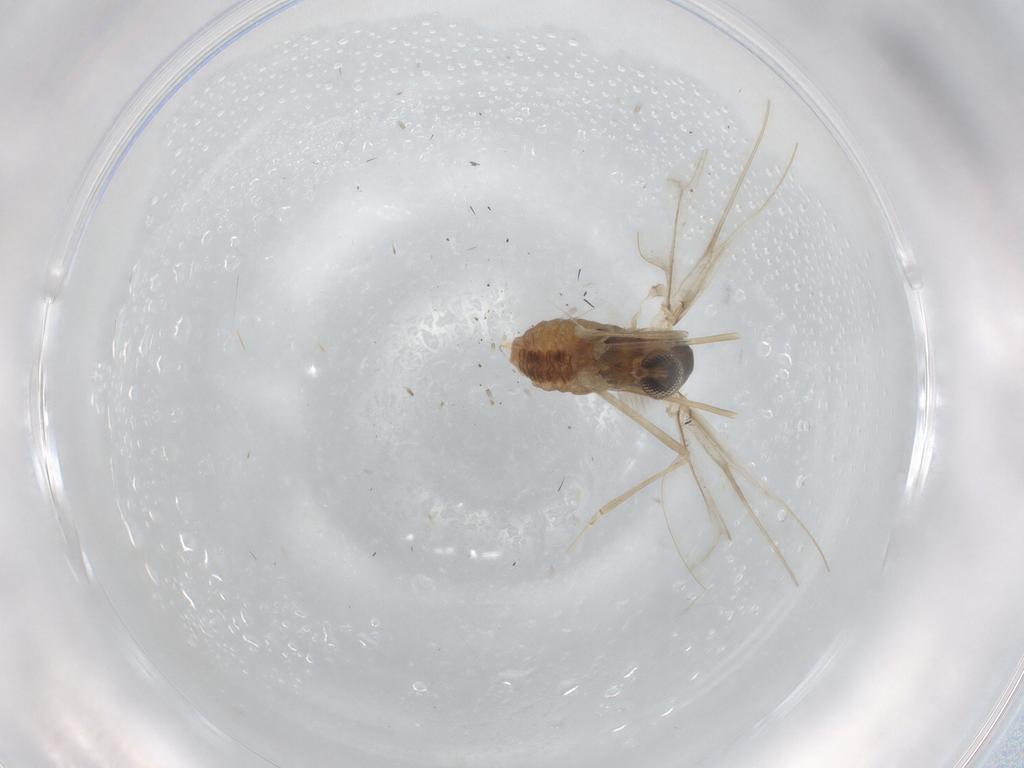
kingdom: Animalia
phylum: Arthropoda
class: Insecta
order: Diptera
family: Cecidomyiidae
